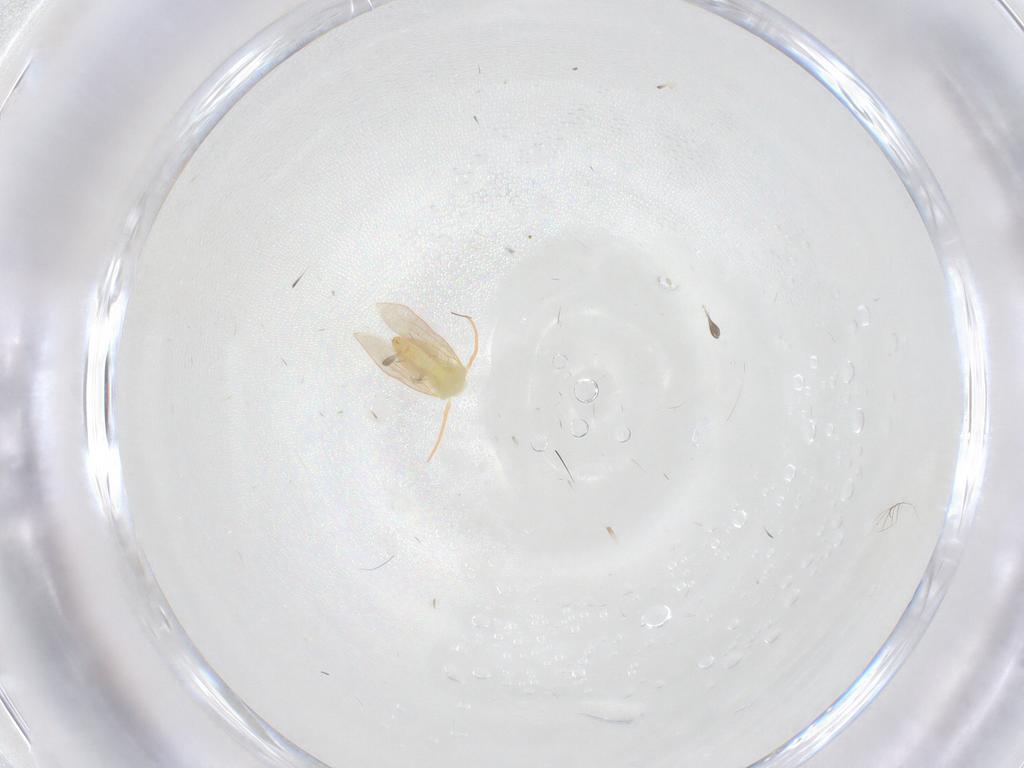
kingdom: Animalia
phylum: Arthropoda
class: Insecta
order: Hemiptera
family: Aleyrodidae
